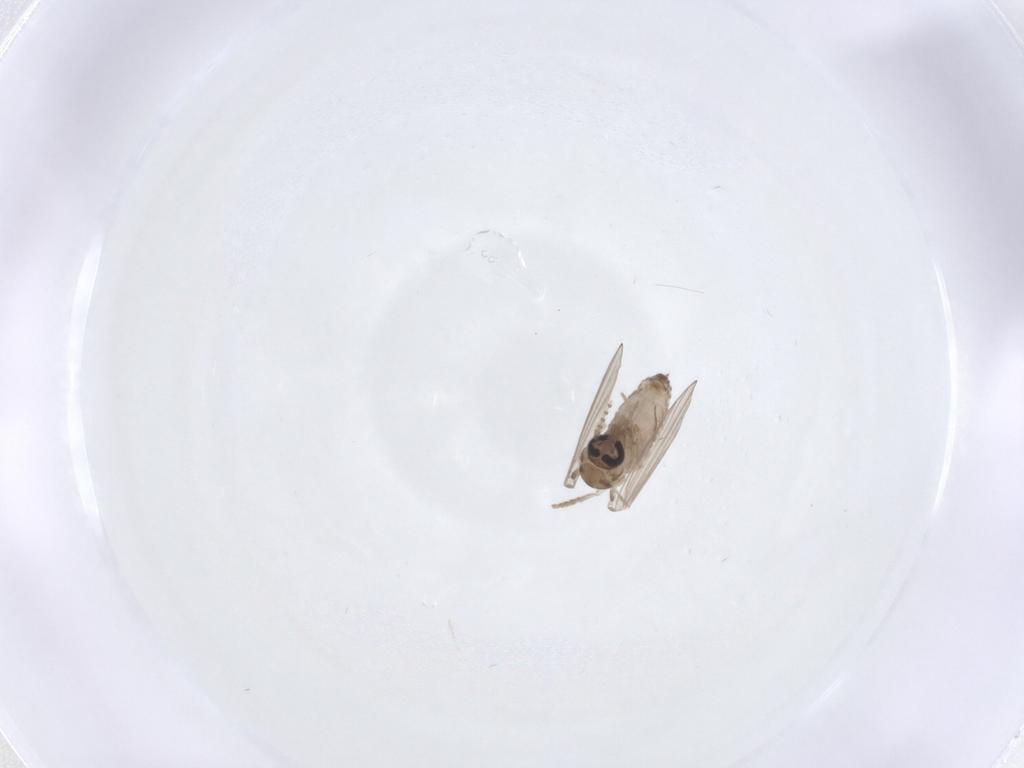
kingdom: Animalia
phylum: Arthropoda
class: Insecta
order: Diptera
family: Psychodidae
